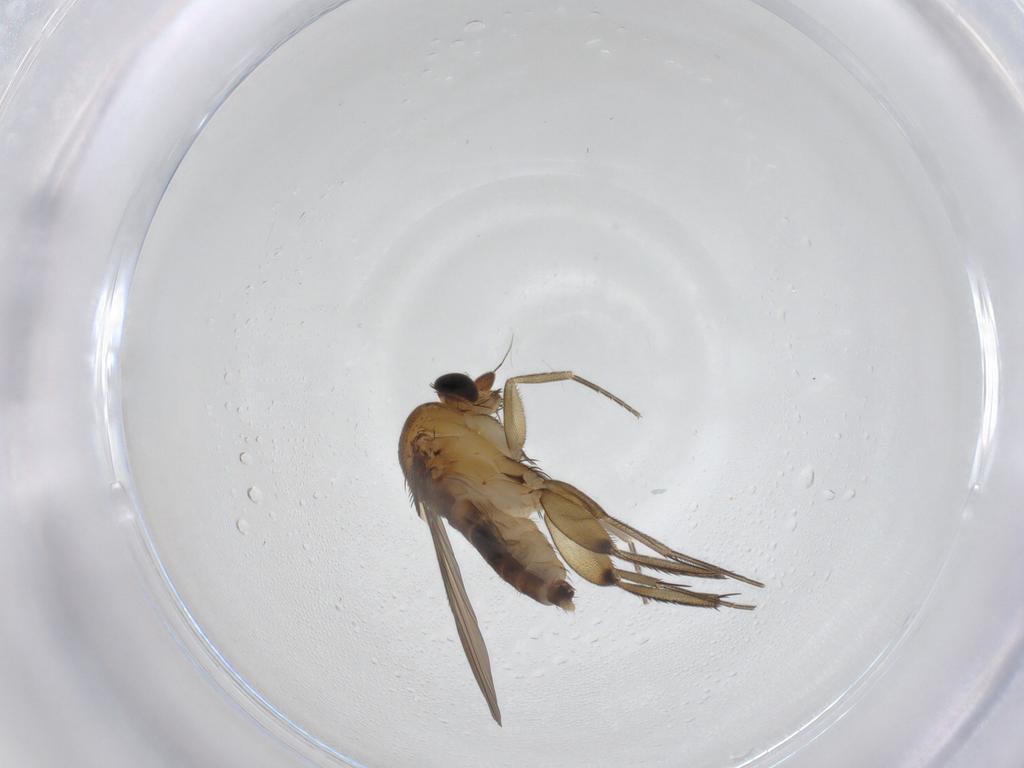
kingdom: Animalia
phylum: Arthropoda
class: Insecta
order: Diptera
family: Phoridae
